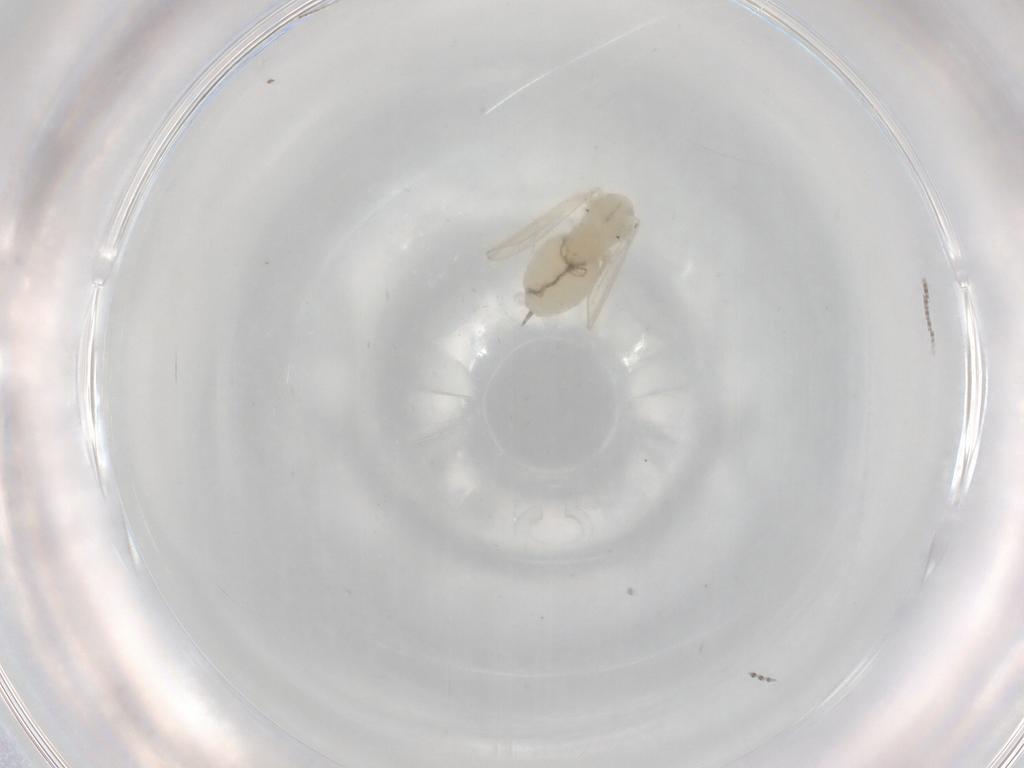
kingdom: Animalia
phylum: Arthropoda
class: Insecta
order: Diptera
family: Psychodidae
